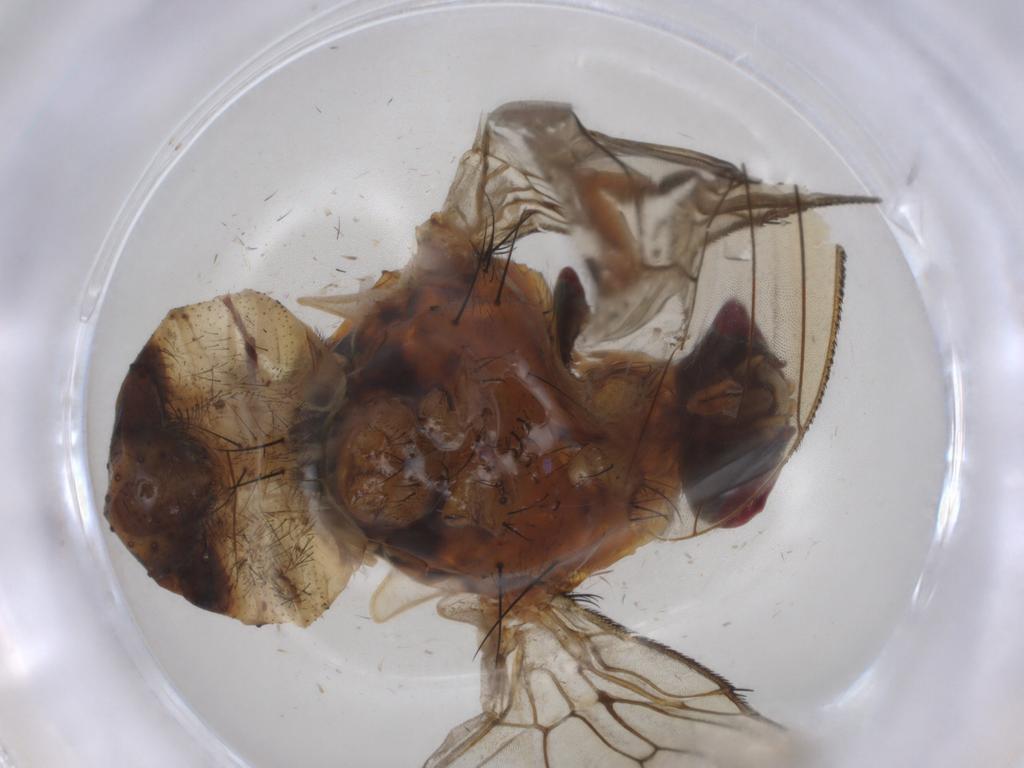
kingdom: Animalia
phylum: Arthropoda
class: Insecta
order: Diptera
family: Muscidae
